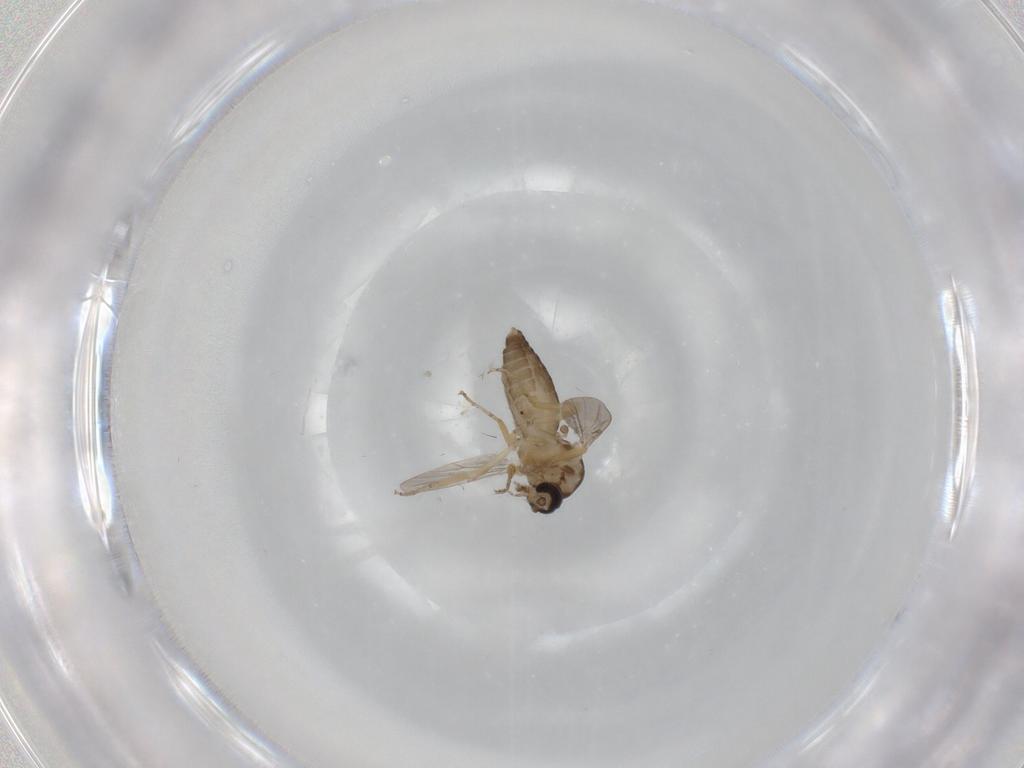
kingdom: Animalia
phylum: Arthropoda
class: Insecta
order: Diptera
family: Ceratopogonidae
